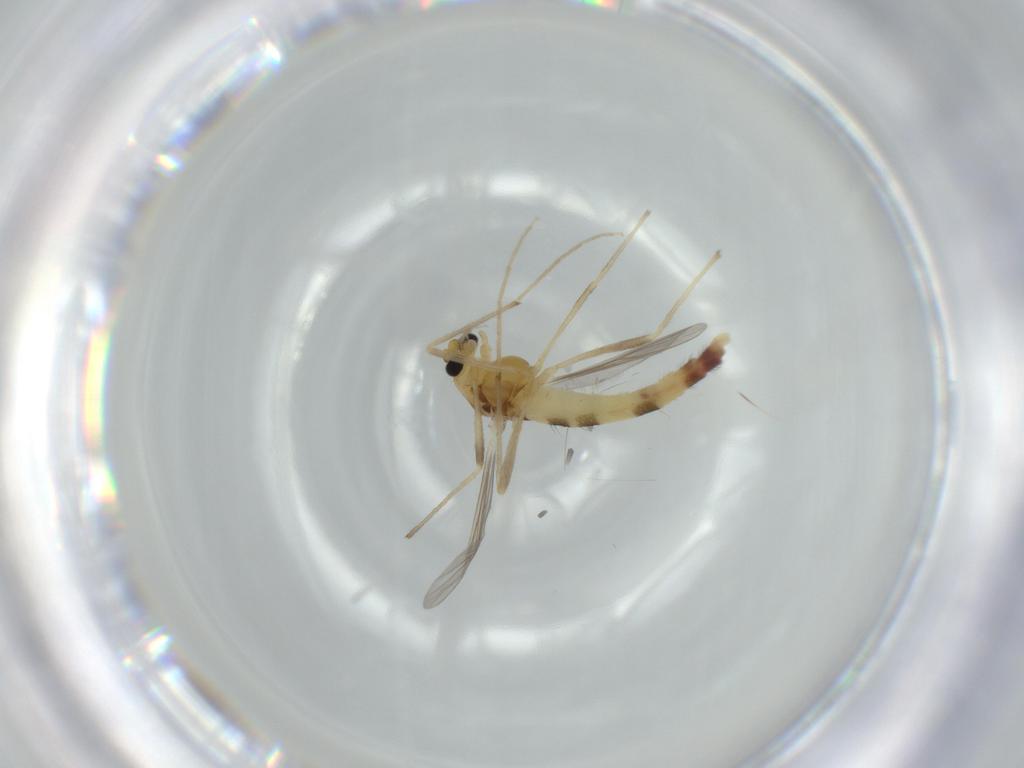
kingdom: Animalia
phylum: Arthropoda
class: Insecta
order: Diptera
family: Chironomidae
